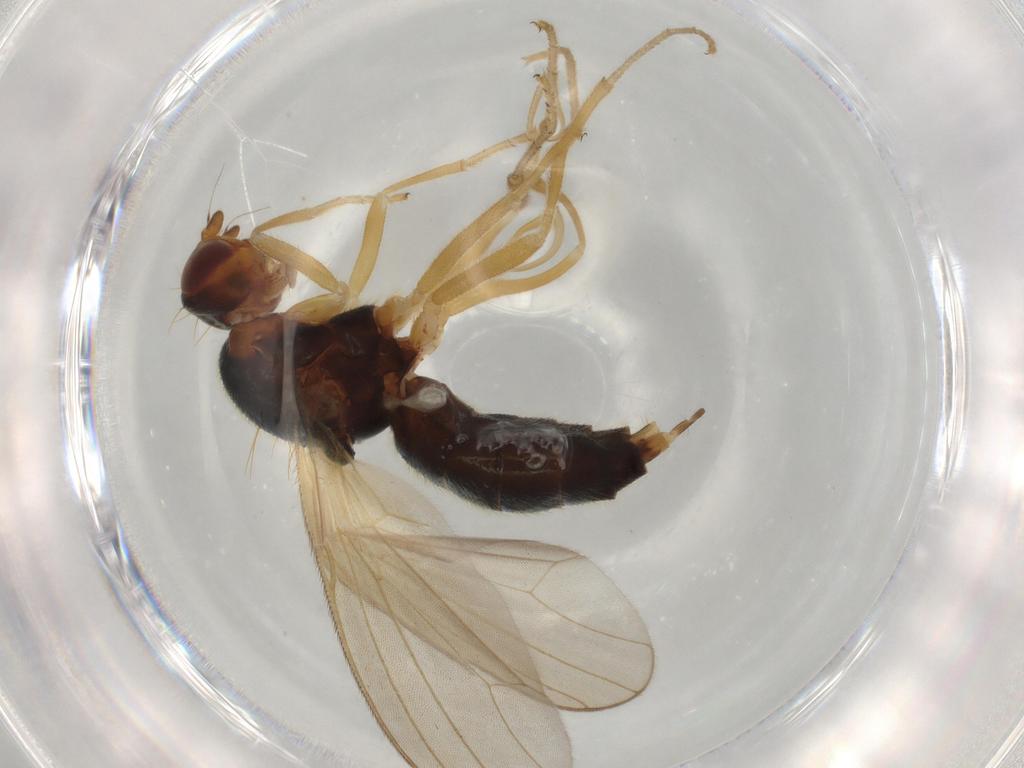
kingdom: Animalia
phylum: Arthropoda
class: Insecta
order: Diptera
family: Hybotidae
